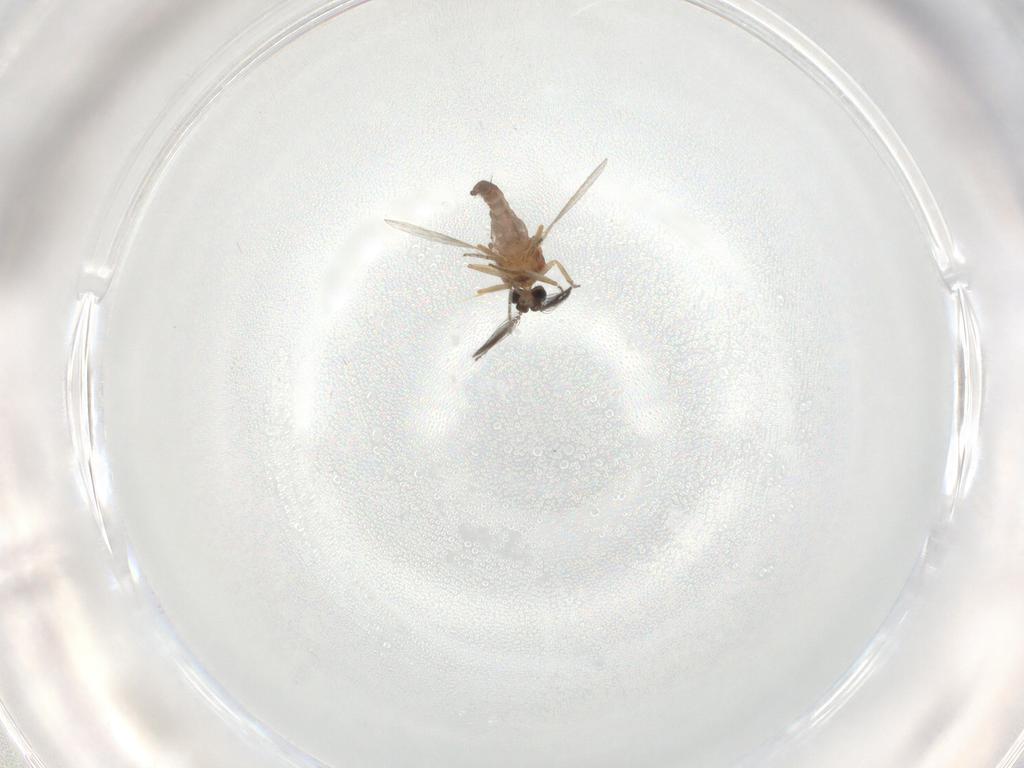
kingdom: Animalia
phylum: Arthropoda
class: Insecta
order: Diptera
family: Ceratopogonidae
